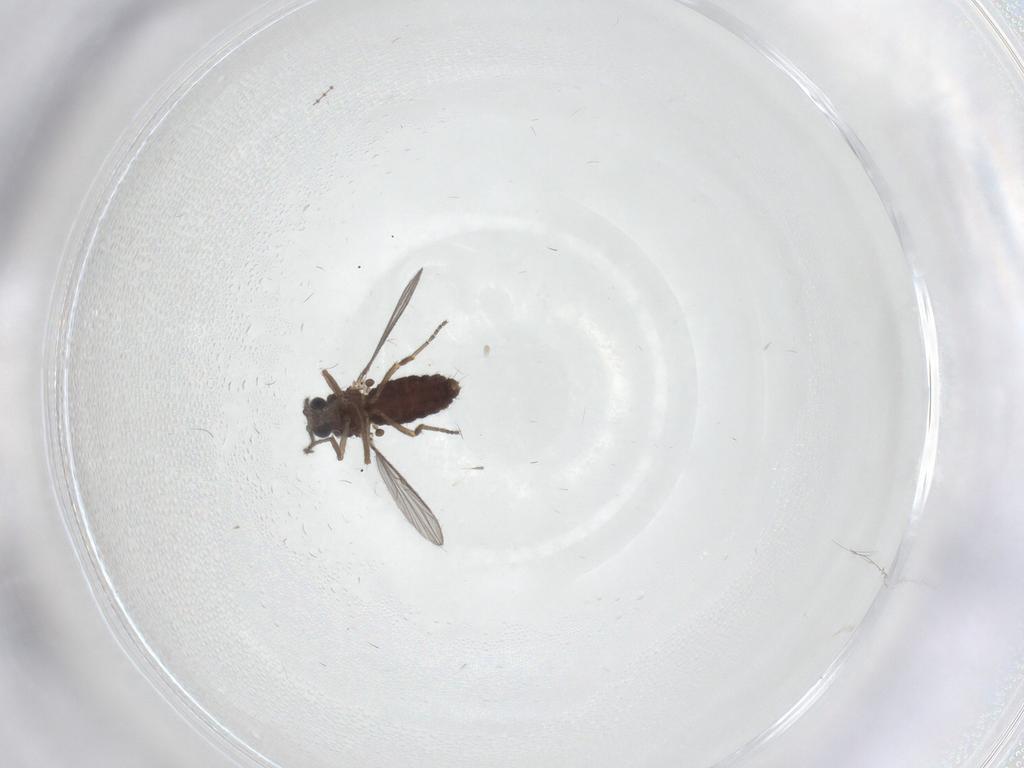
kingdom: Animalia
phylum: Arthropoda
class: Insecta
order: Diptera
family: Ceratopogonidae
